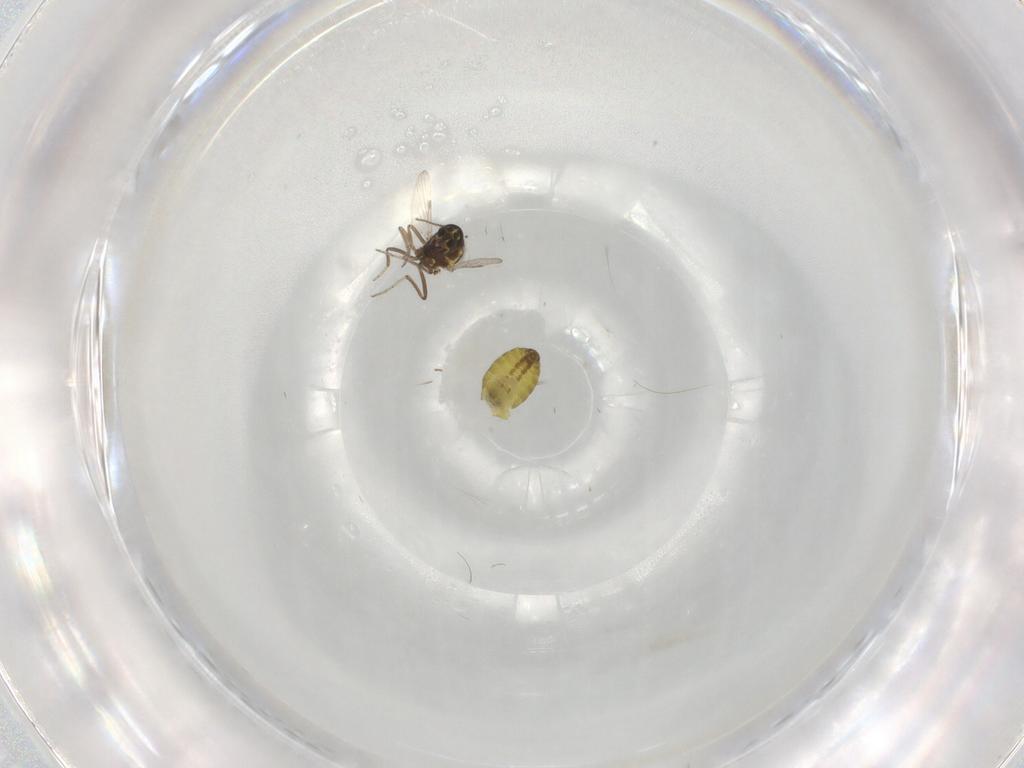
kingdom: Animalia
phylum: Arthropoda
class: Insecta
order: Diptera
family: Ceratopogonidae
